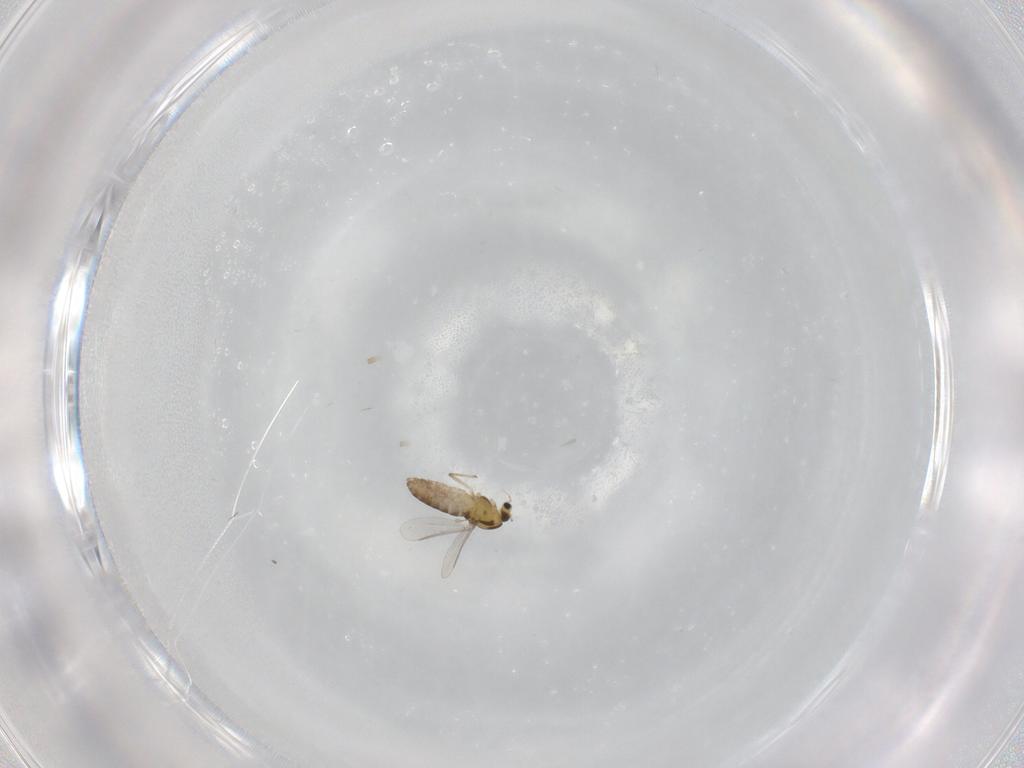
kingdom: Animalia
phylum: Arthropoda
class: Insecta
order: Diptera
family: Chironomidae
